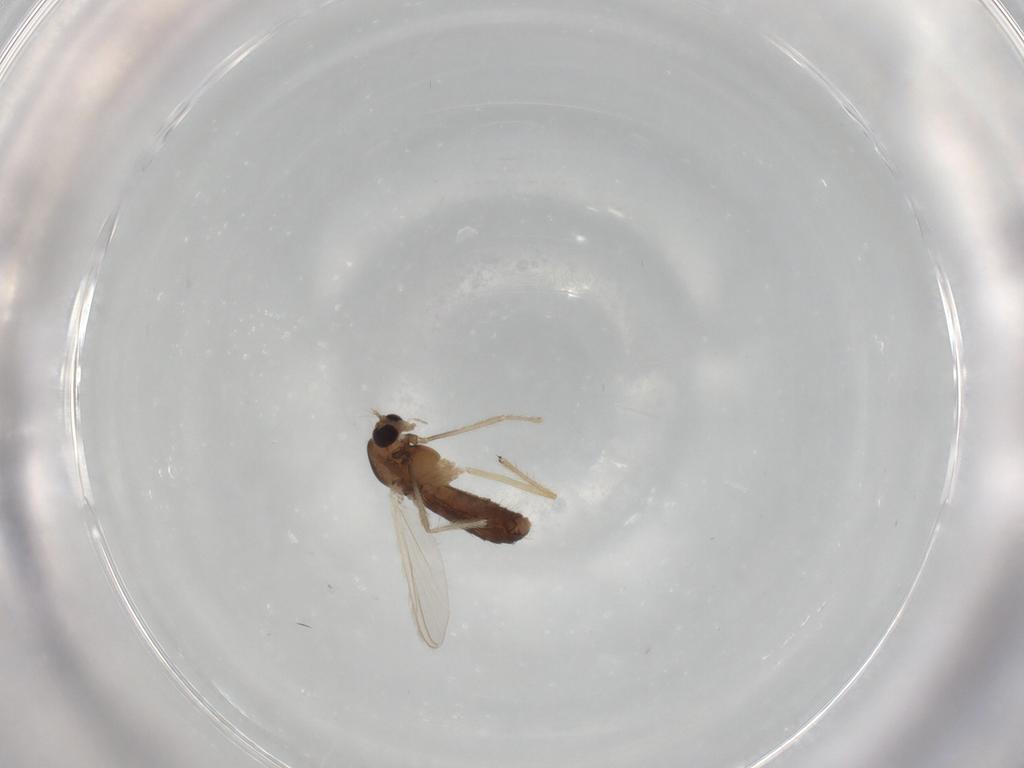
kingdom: Animalia
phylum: Arthropoda
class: Insecta
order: Diptera
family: Chironomidae
